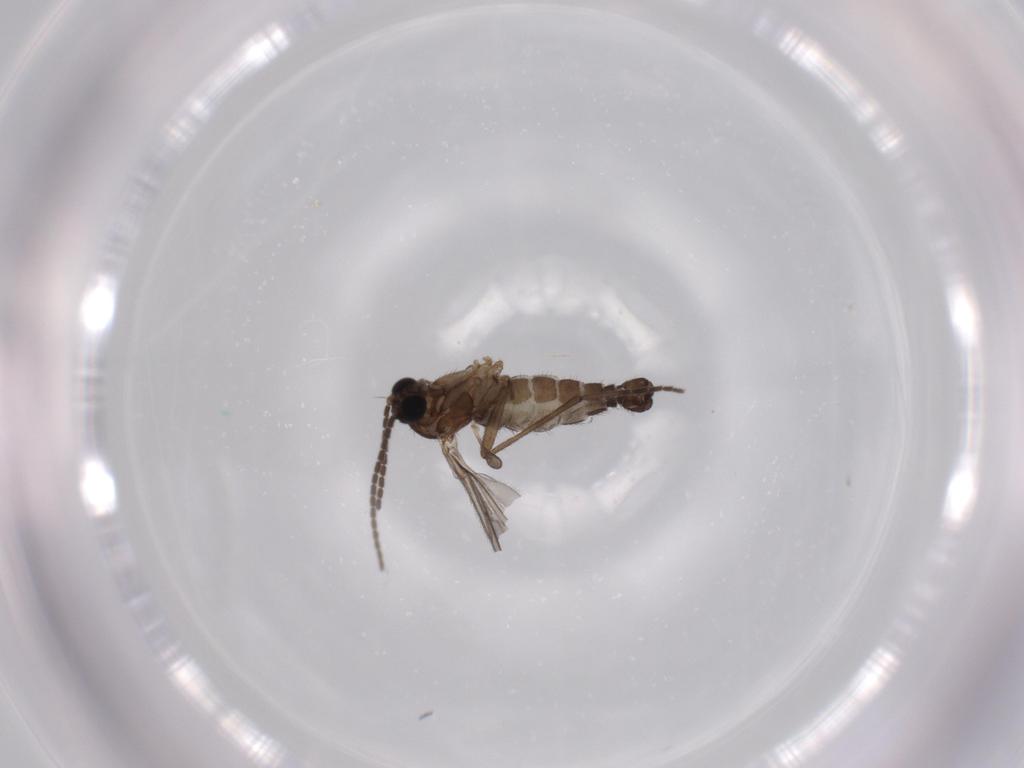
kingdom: Animalia
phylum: Arthropoda
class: Insecta
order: Diptera
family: Sciaridae
